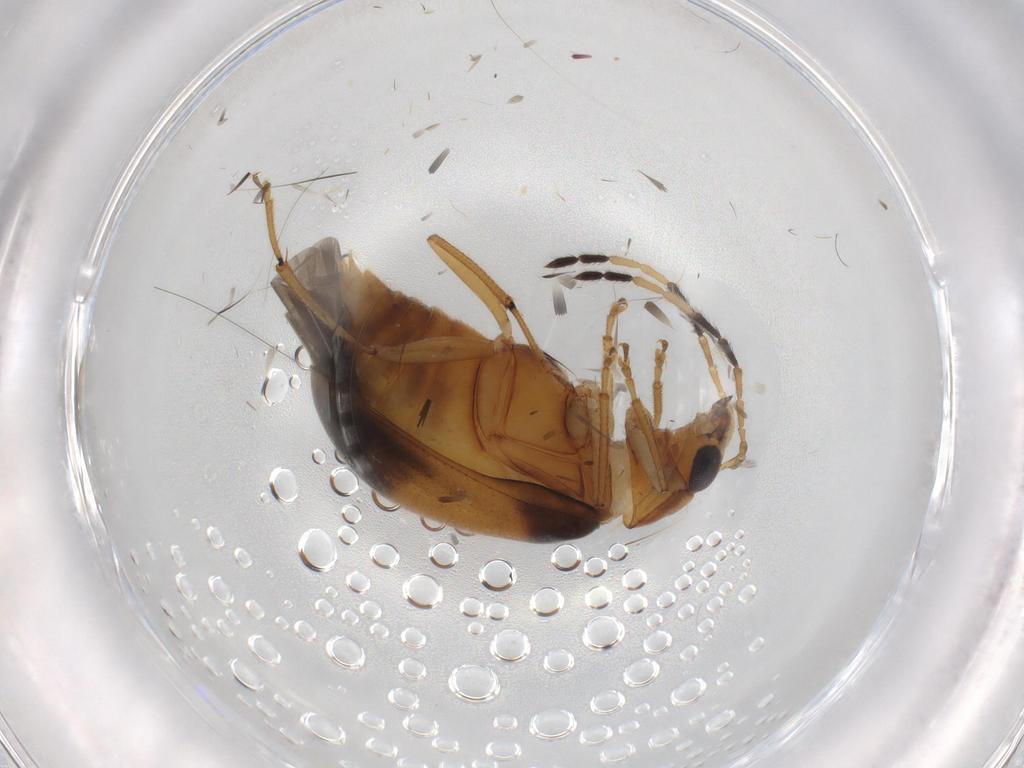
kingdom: Animalia
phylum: Arthropoda
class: Insecta
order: Coleoptera
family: Chrysomelidae
